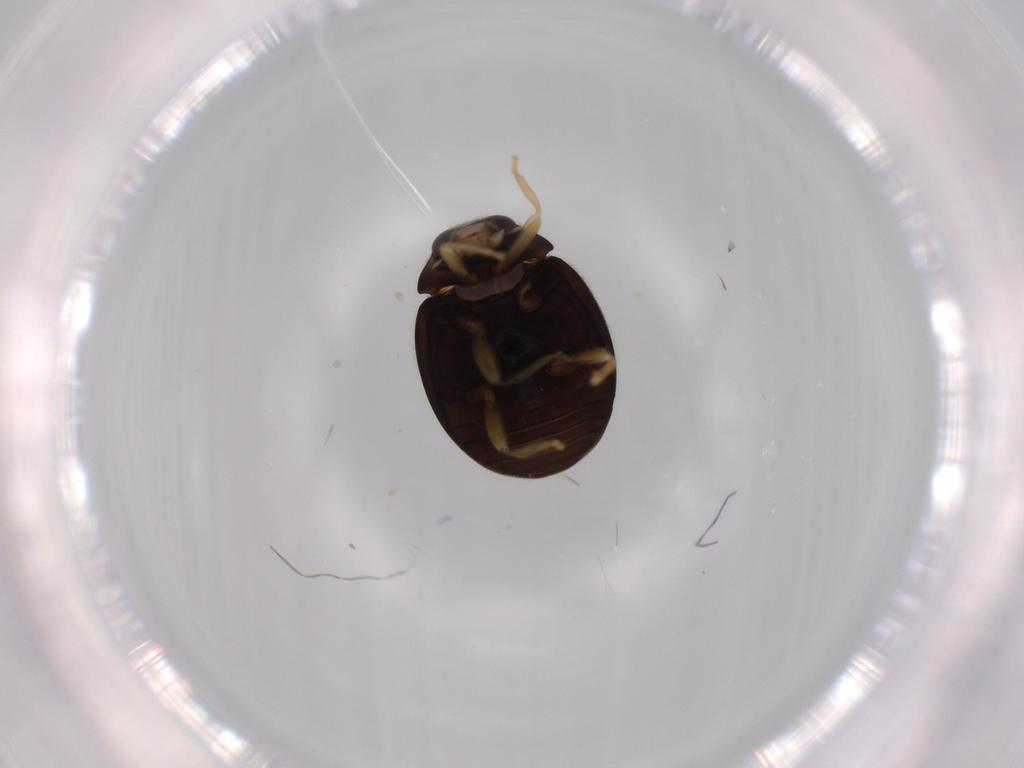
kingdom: Animalia
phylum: Arthropoda
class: Insecta
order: Coleoptera
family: Coccinellidae
